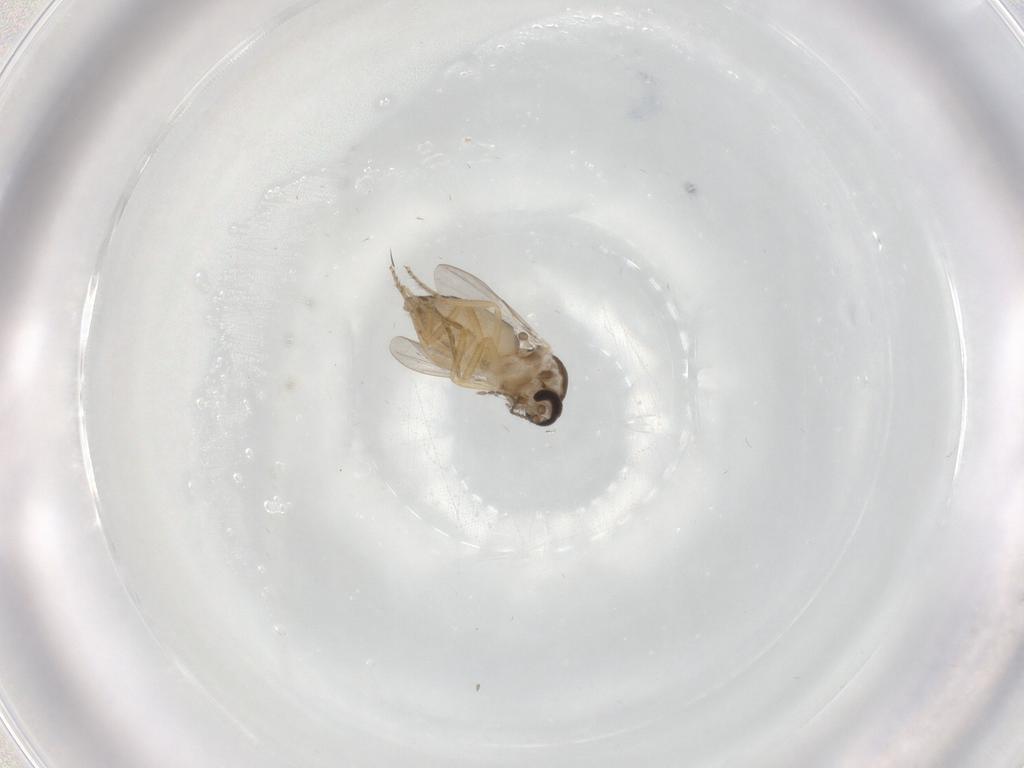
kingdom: Animalia
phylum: Arthropoda
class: Insecta
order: Diptera
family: Ceratopogonidae
